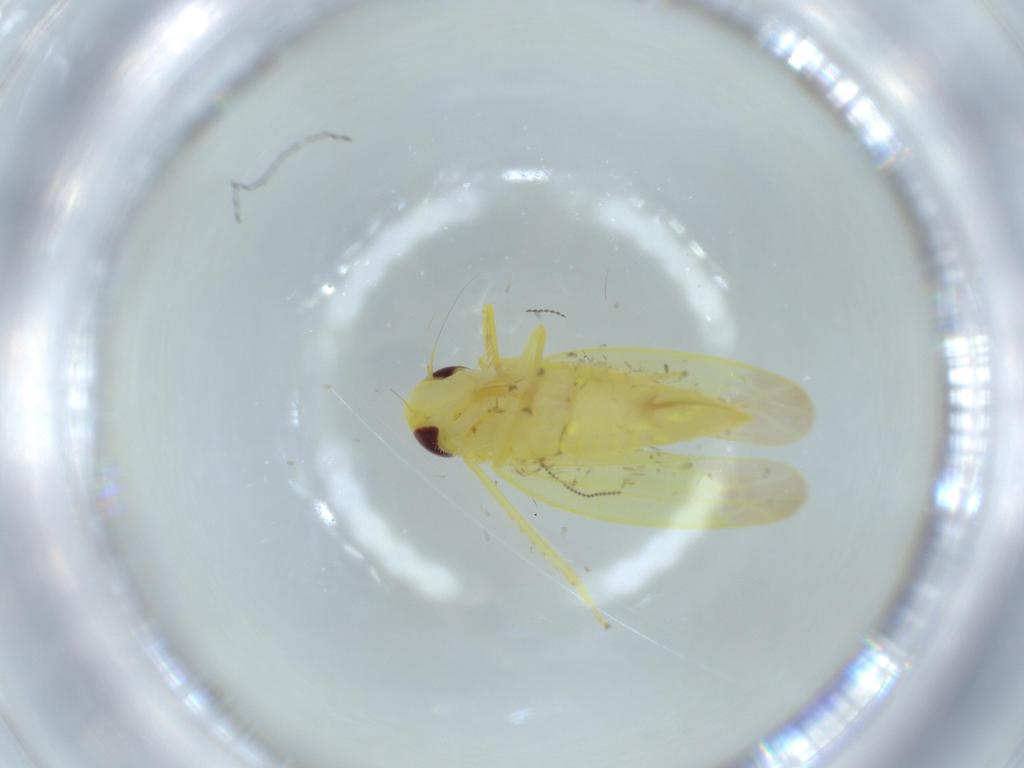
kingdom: Animalia
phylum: Arthropoda
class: Insecta
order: Hemiptera
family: Cicadellidae
